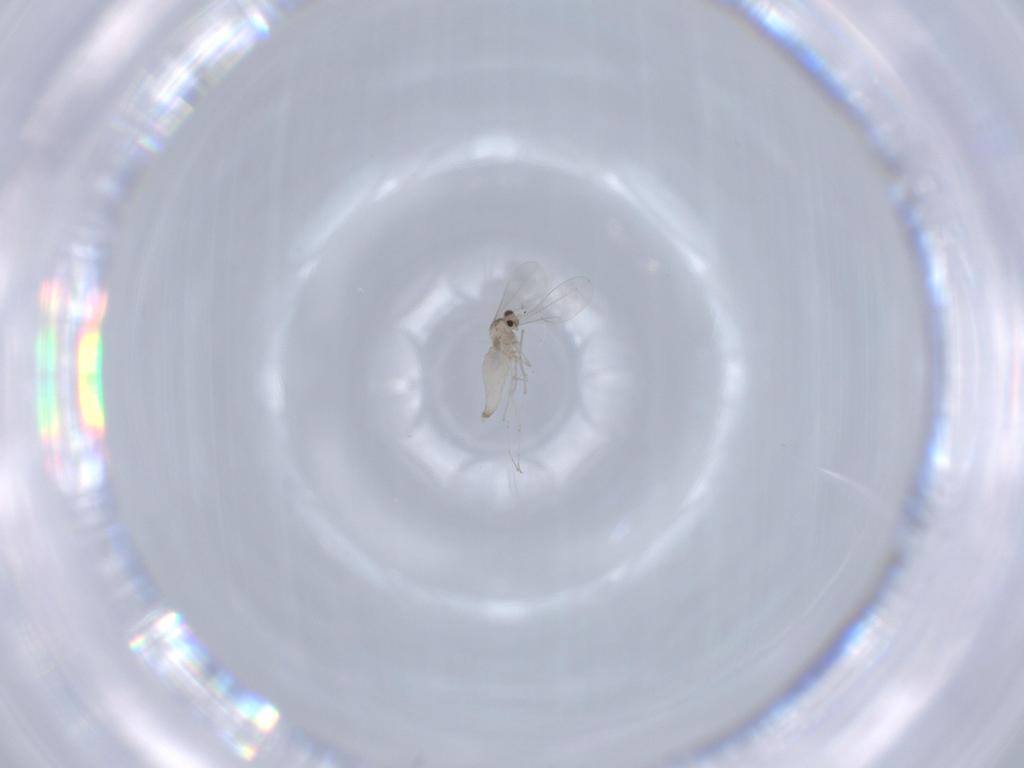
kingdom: Animalia
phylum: Arthropoda
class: Insecta
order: Diptera
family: Cecidomyiidae
